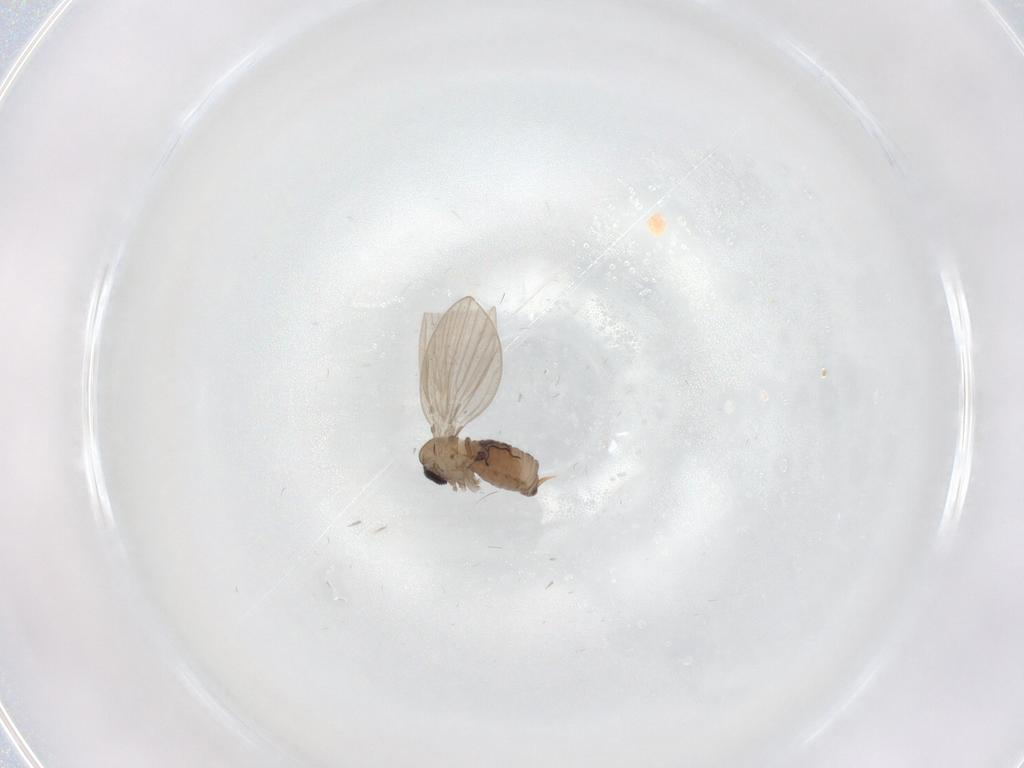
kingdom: Animalia
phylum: Arthropoda
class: Insecta
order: Diptera
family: Psychodidae
